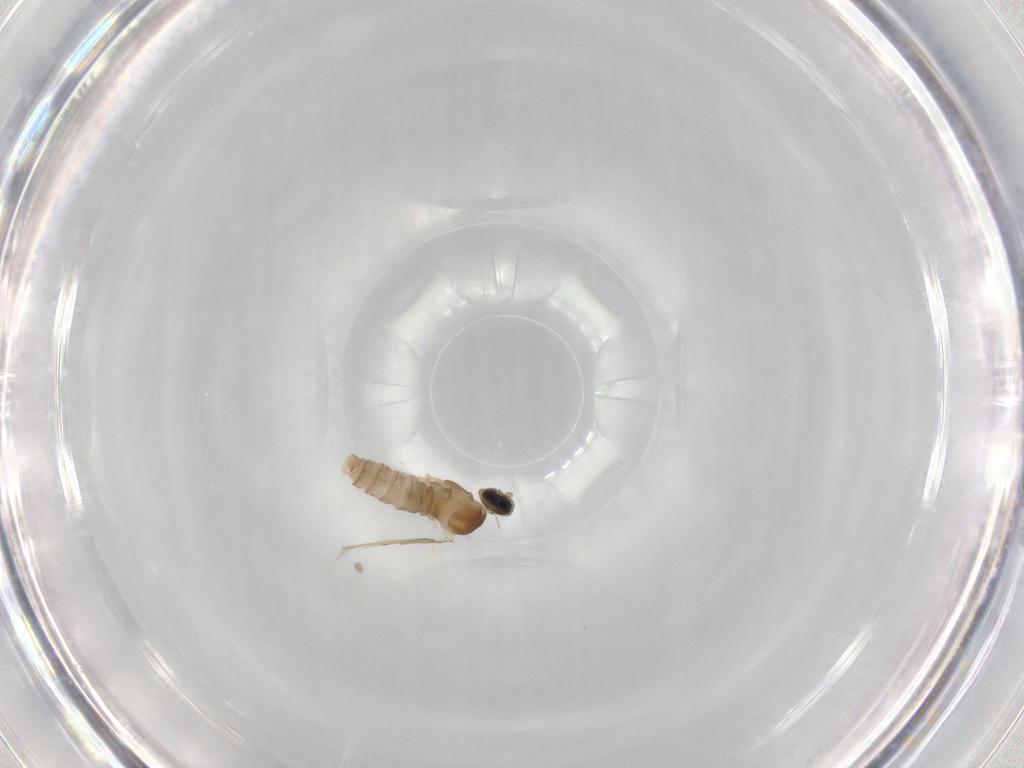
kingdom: Animalia
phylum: Arthropoda
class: Insecta
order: Diptera
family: Cecidomyiidae
